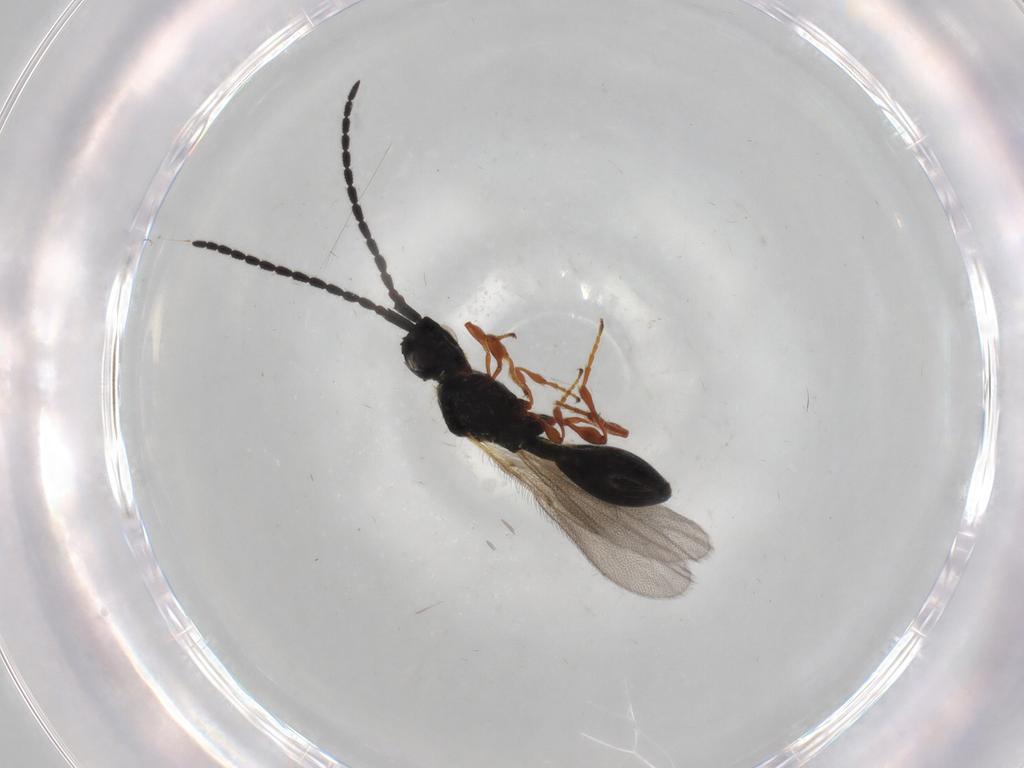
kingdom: Animalia
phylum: Arthropoda
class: Insecta
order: Hymenoptera
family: Diapriidae
